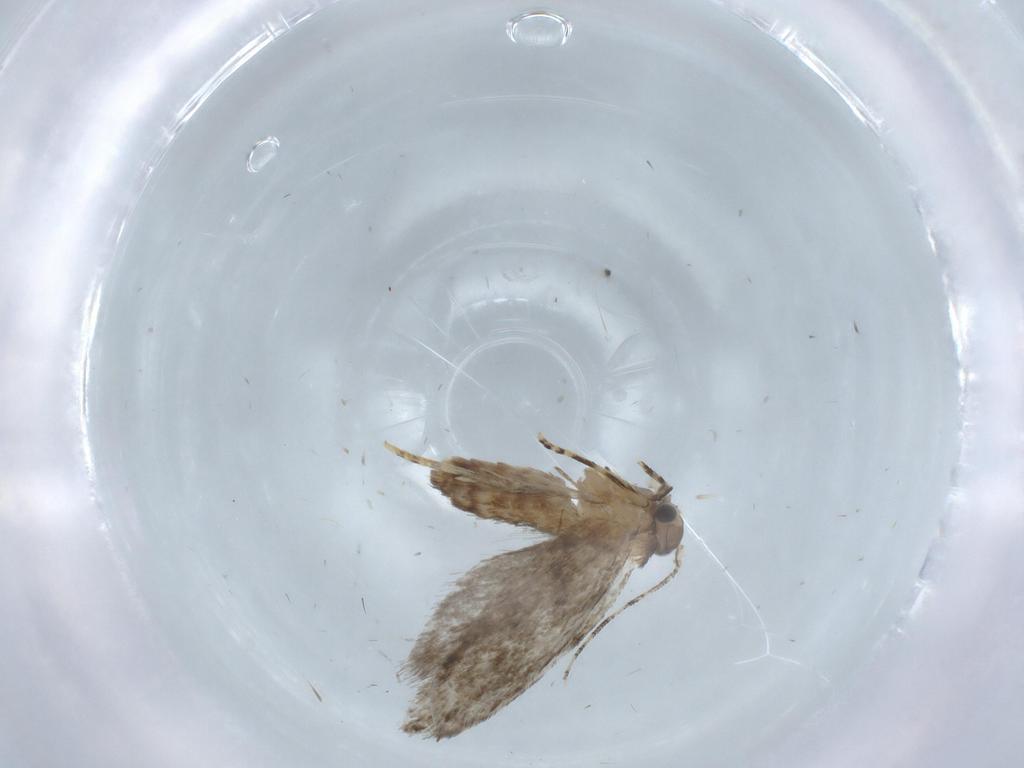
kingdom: Animalia
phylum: Arthropoda
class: Insecta
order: Lepidoptera
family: Tineidae
